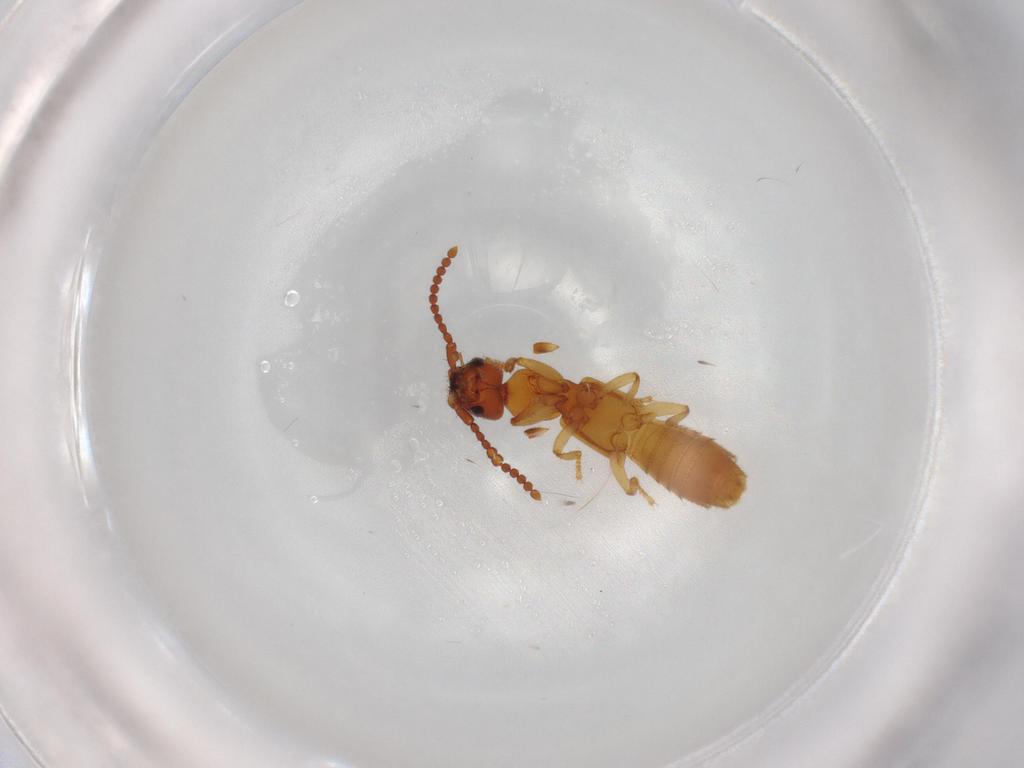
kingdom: Animalia
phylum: Arthropoda
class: Insecta
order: Coleoptera
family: Staphylinidae
